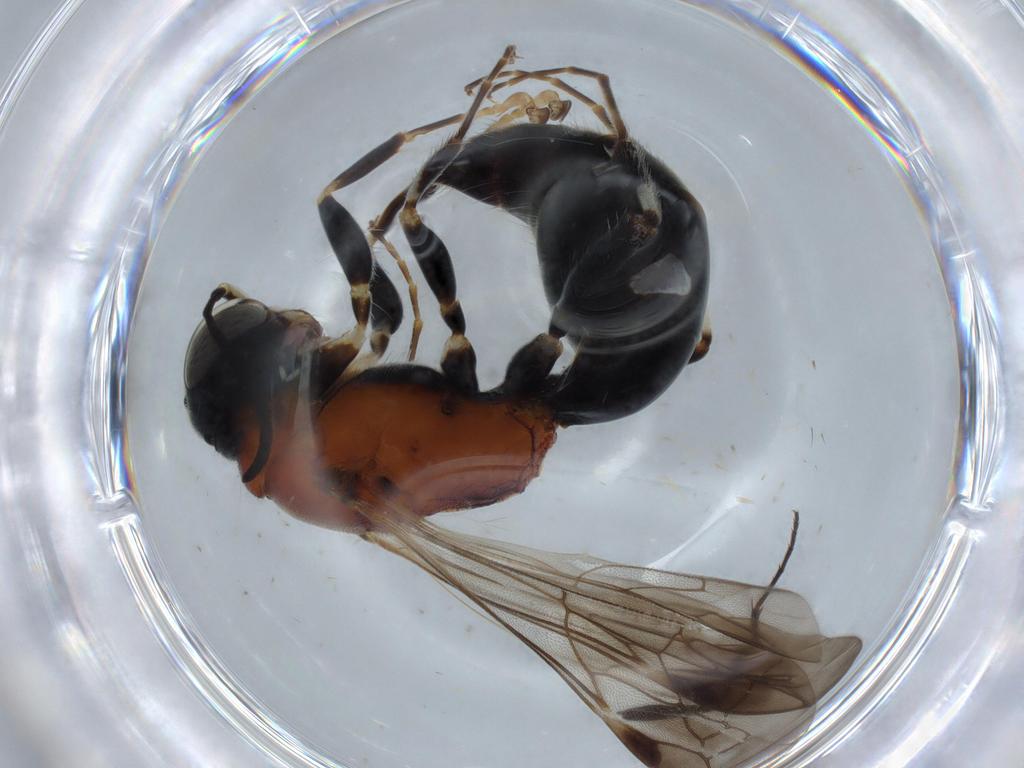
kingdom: Animalia
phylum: Arthropoda
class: Insecta
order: Hymenoptera
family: Bembicidae
